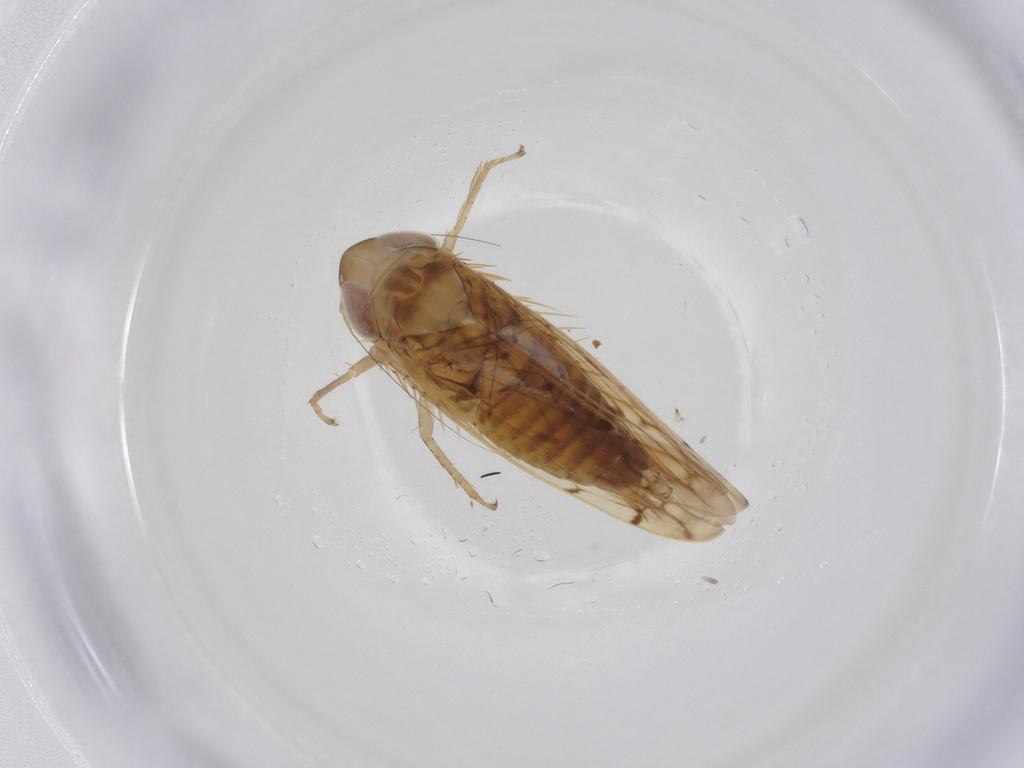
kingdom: Animalia
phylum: Arthropoda
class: Insecta
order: Hemiptera
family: Cicadellidae
